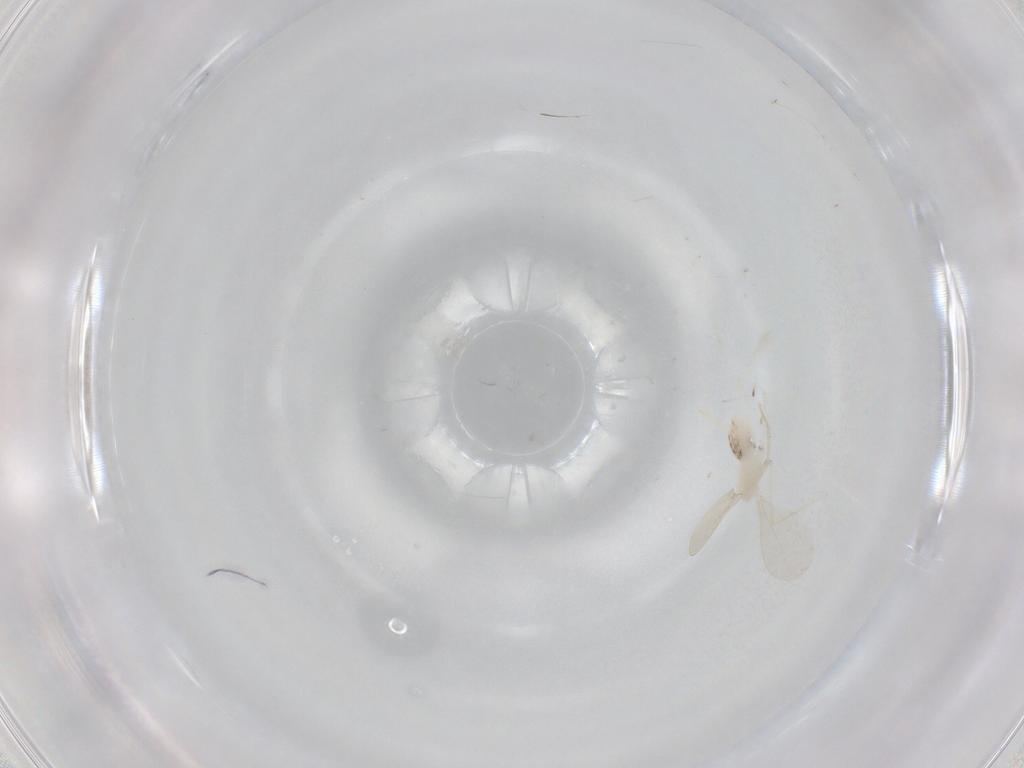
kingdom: Animalia
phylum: Arthropoda
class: Insecta
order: Diptera
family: Cecidomyiidae
